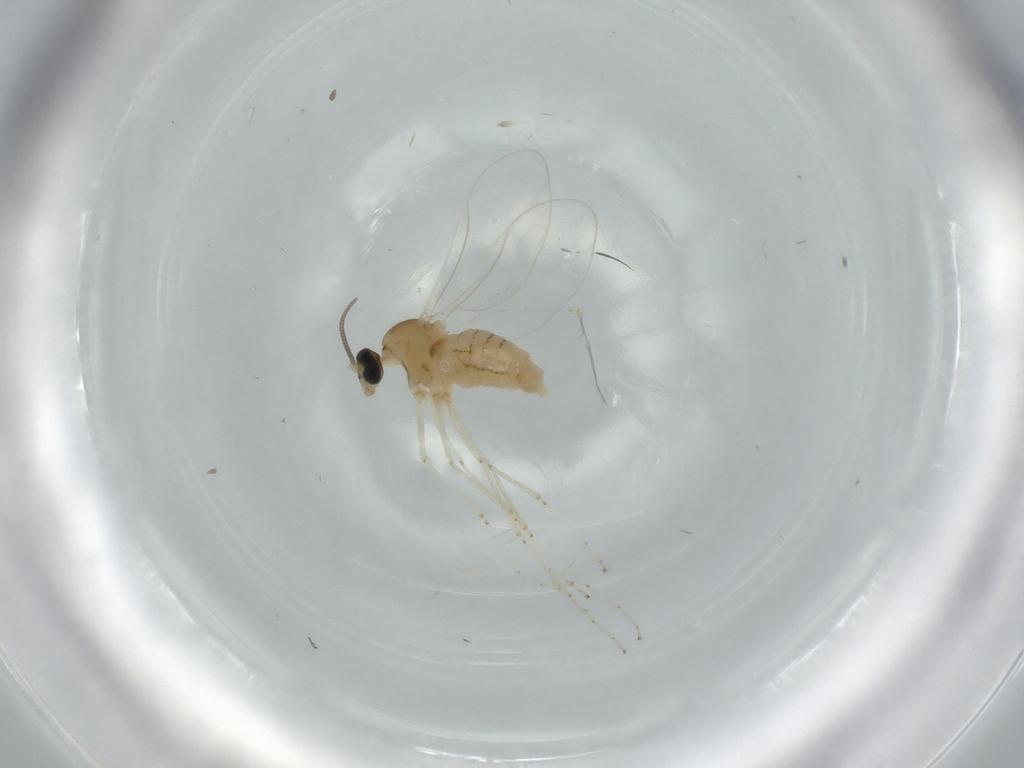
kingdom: Animalia
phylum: Arthropoda
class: Insecta
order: Diptera
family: Cecidomyiidae
